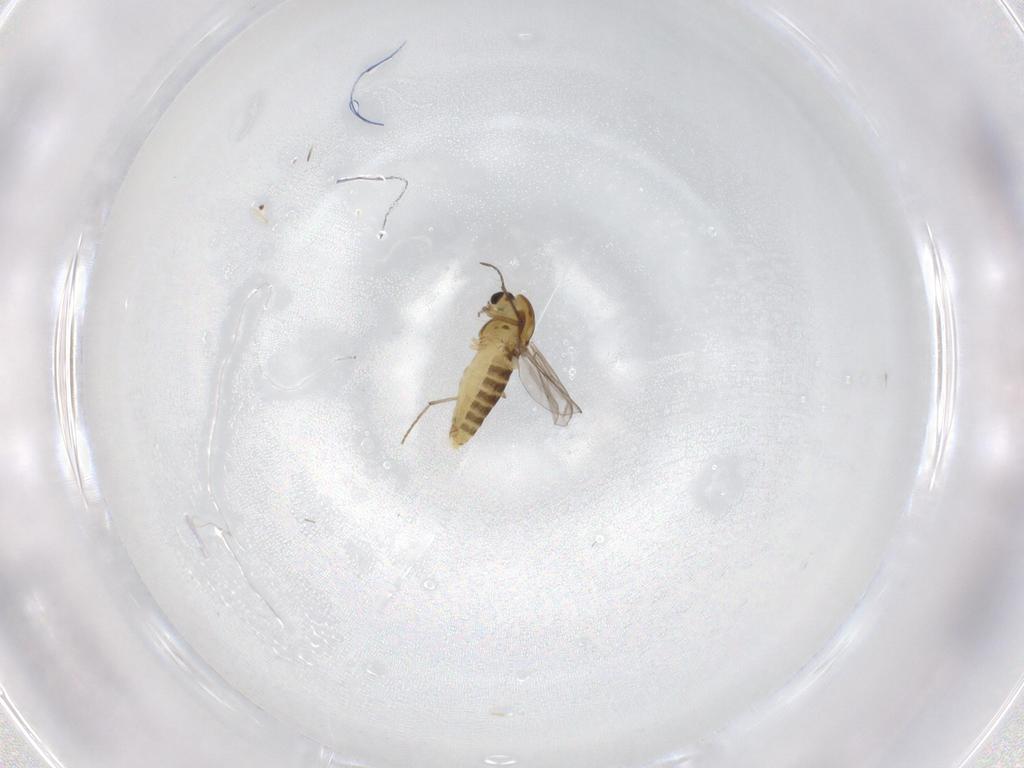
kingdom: Animalia
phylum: Arthropoda
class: Insecta
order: Diptera
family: Chironomidae
